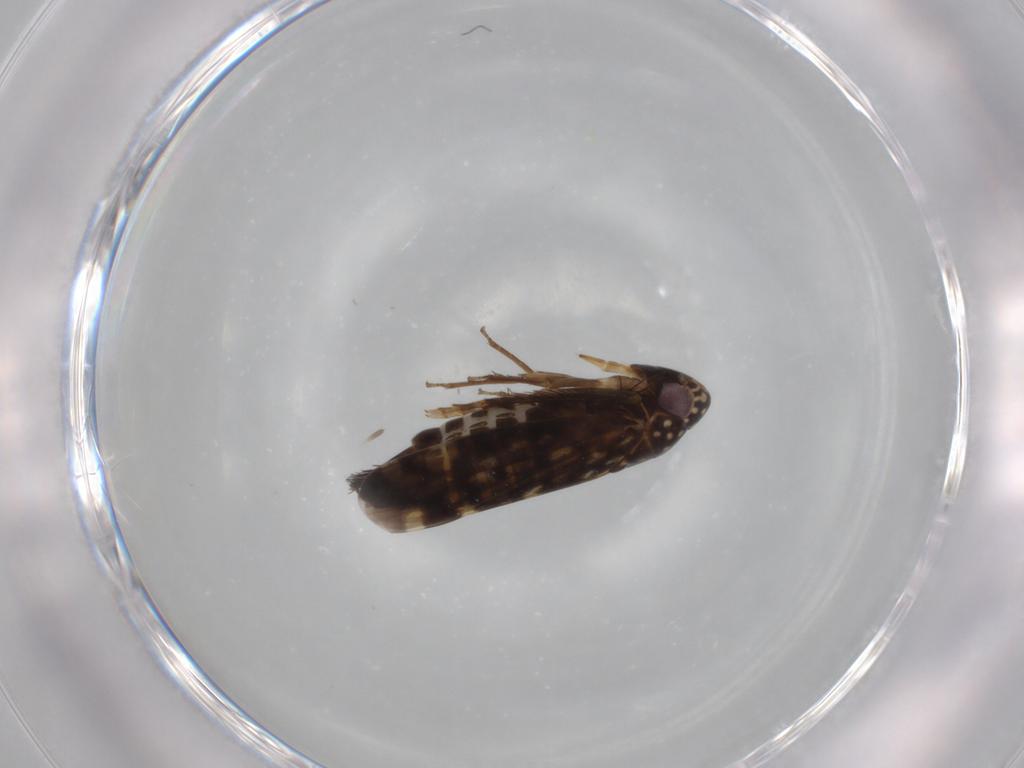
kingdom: Animalia
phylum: Arthropoda
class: Insecta
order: Hemiptera
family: Cicadellidae
